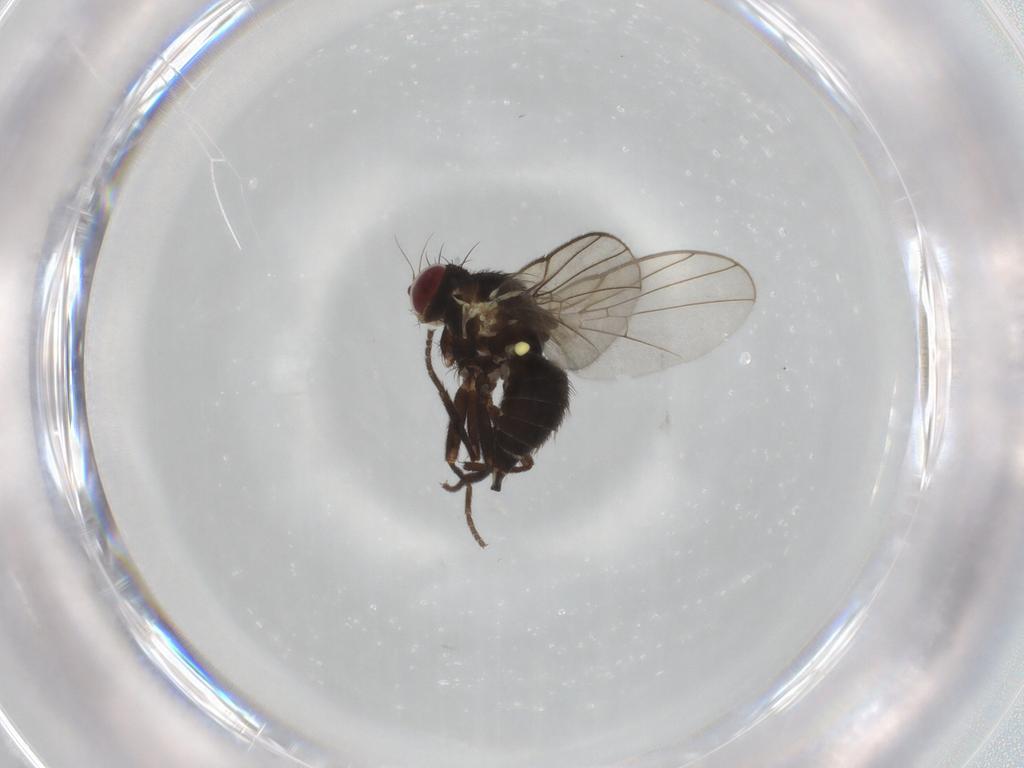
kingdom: Animalia
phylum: Arthropoda
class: Insecta
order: Diptera
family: Agromyzidae
